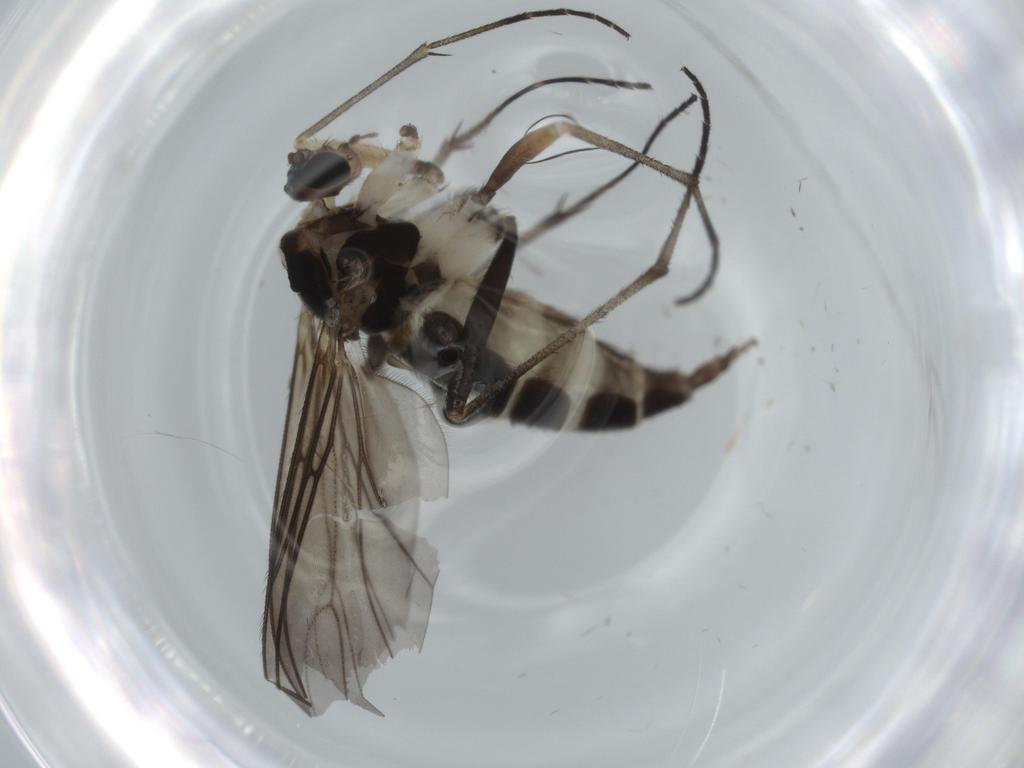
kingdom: Animalia
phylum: Arthropoda
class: Insecta
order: Diptera
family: Sciaridae
